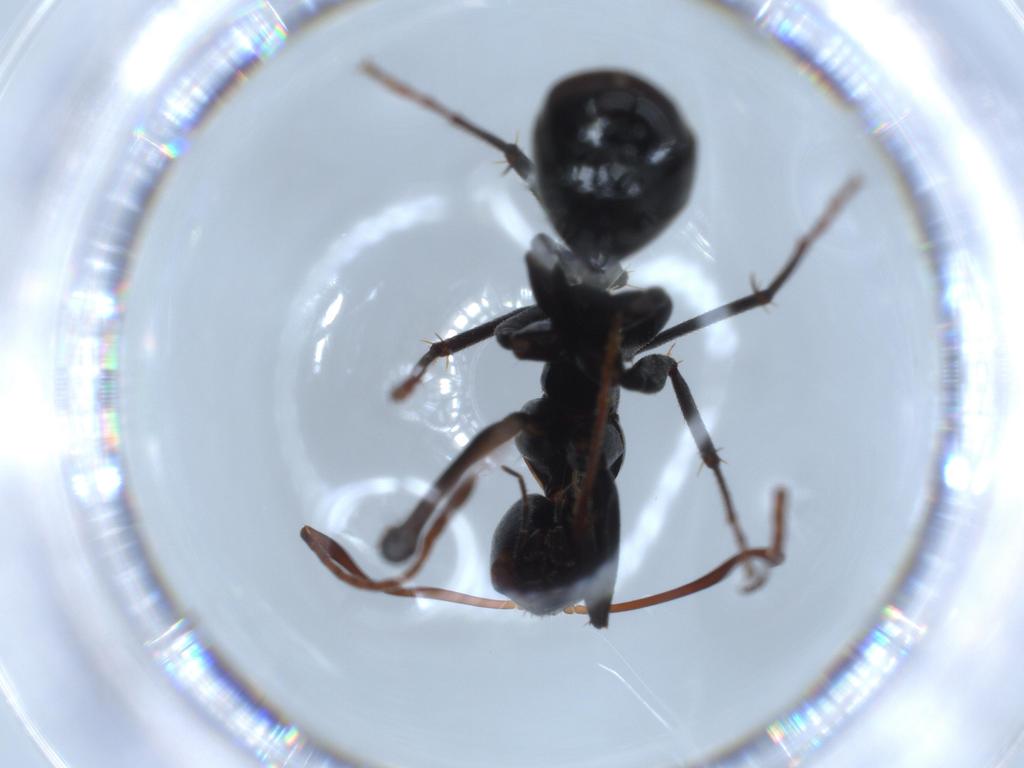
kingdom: Animalia
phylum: Arthropoda
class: Insecta
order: Hymenoptera
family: Formicidae
